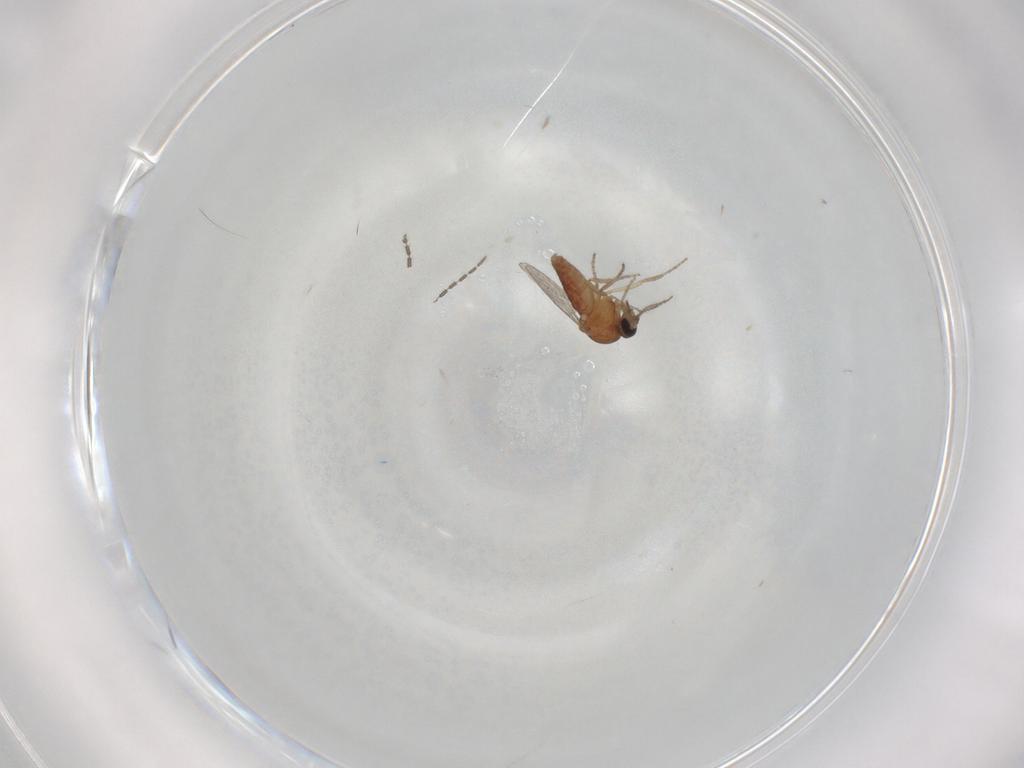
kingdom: Animalia
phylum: Arthropoda
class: Insecta
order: Diptera
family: Ceratopogonidae
